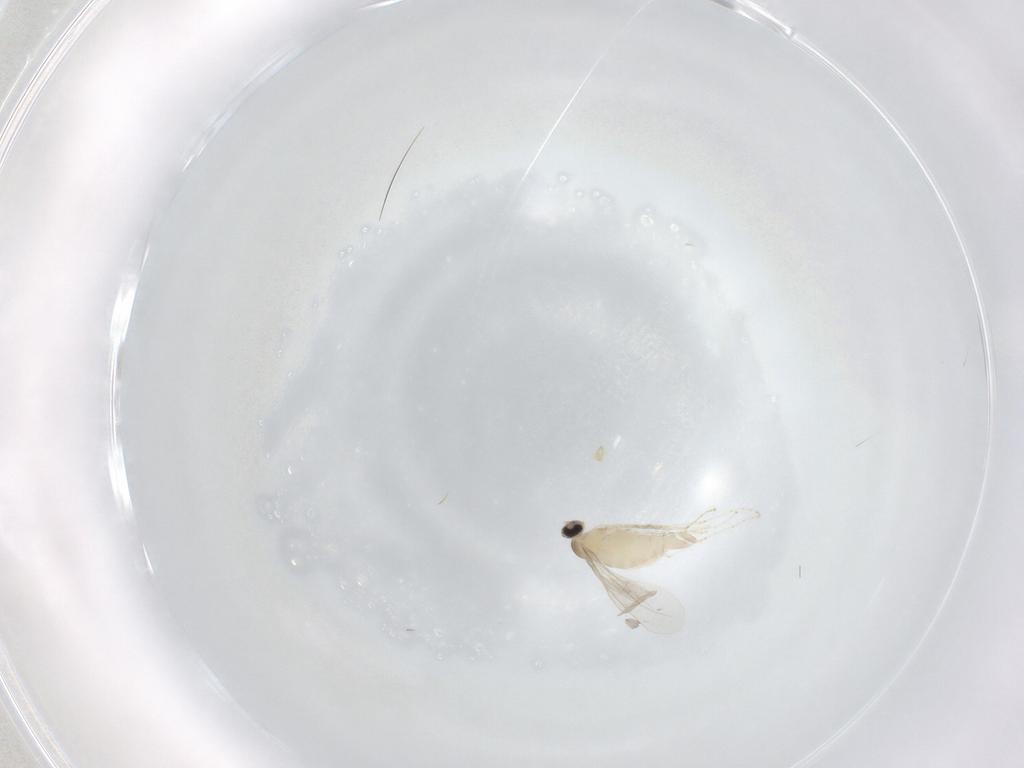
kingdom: Animalia
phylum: Arthropoda
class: Insecta
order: Diptera
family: Cecidomyiidae
